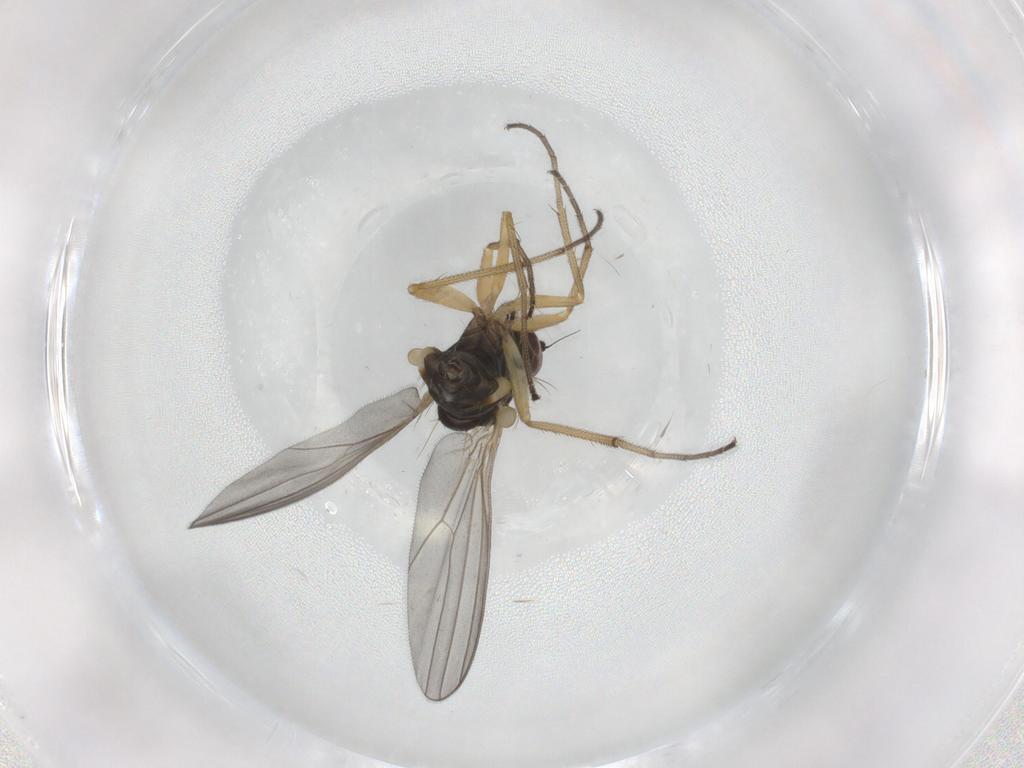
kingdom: Animalia
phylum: Arthropoda
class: Insecta
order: Diptera
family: Dolichopodidae
